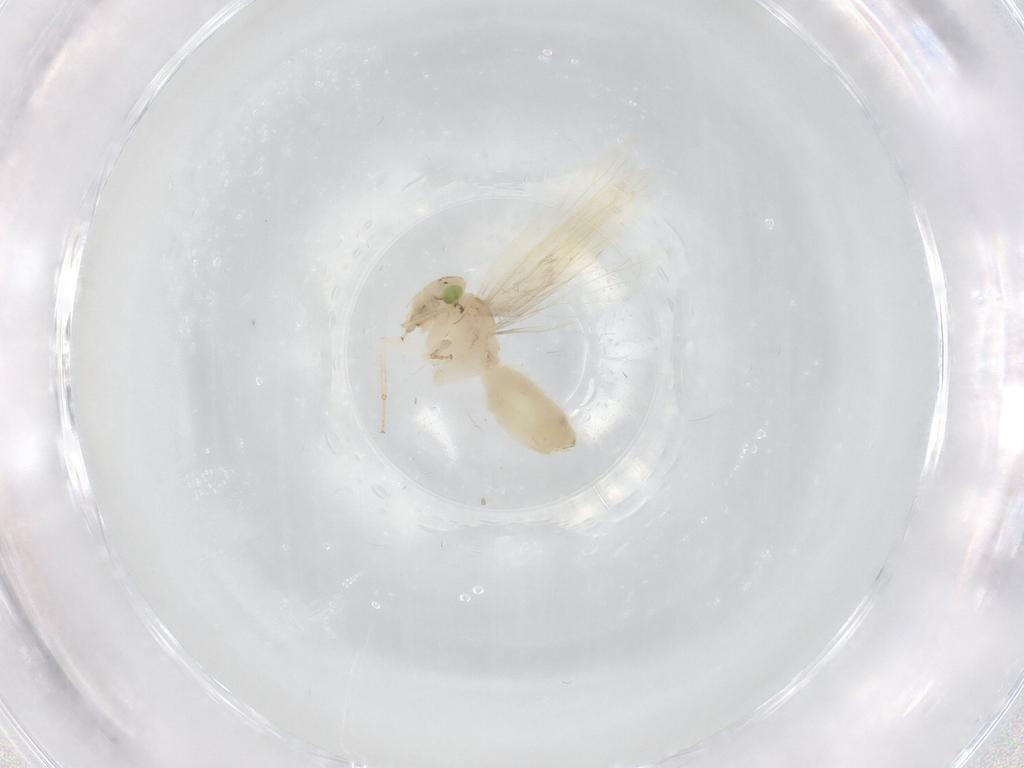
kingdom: Animalia
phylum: Arthropoda
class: Insecta
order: Psocodea
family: Lepidopsocidae
